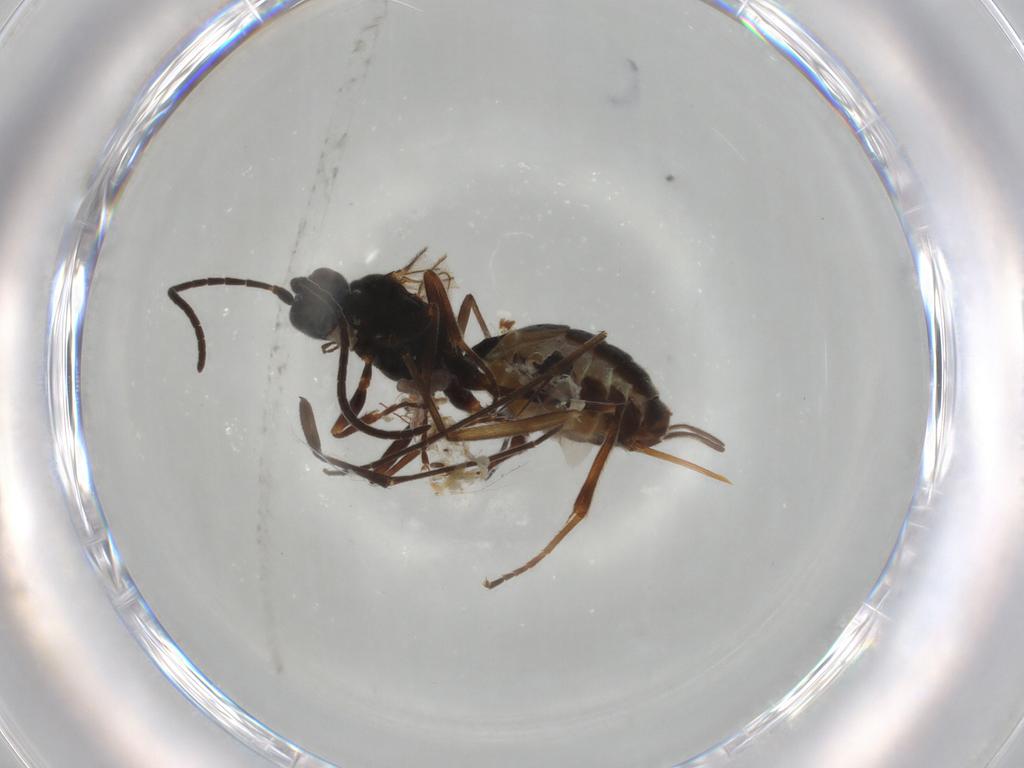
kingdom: Animalia
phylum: Arthropoda
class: Insecta
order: Hymenoptera
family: Ichneumonidae
